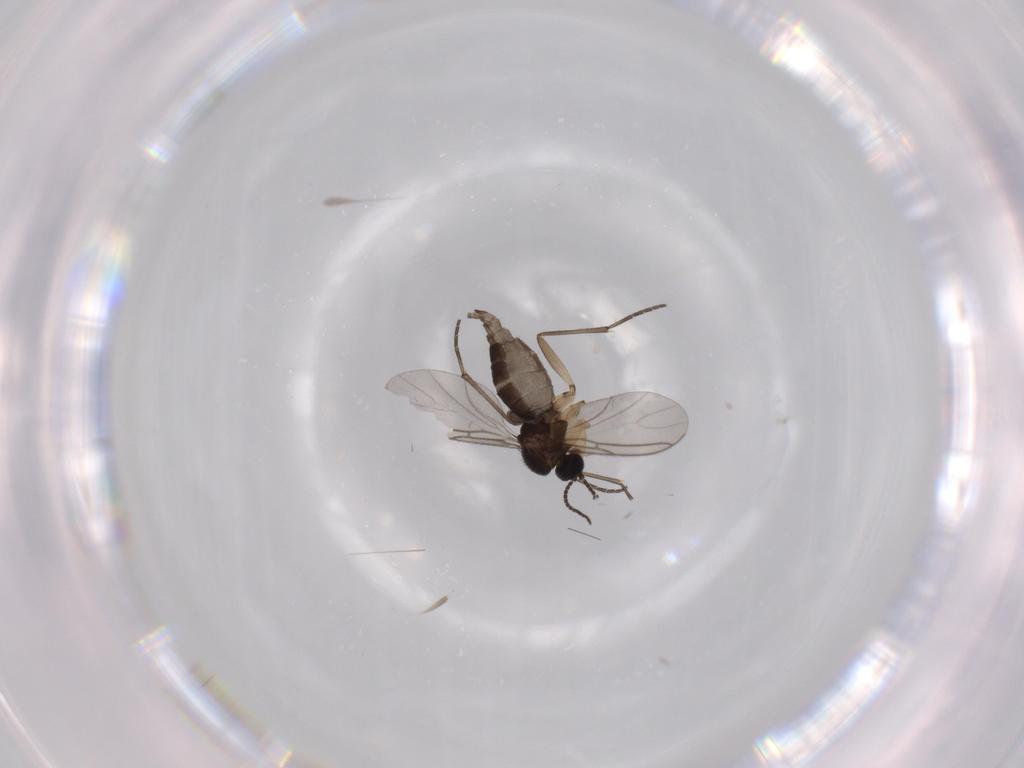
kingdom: Animalia
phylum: Arthropoda
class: Insecta
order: Diptera
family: Sciaridae
